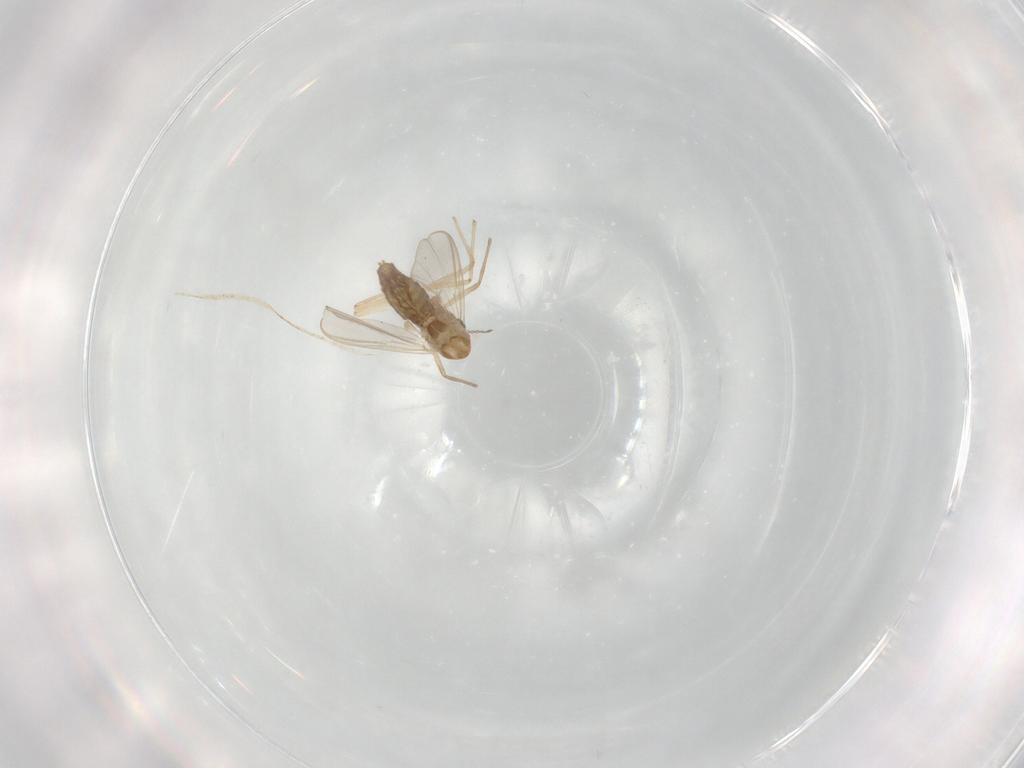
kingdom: Animalia
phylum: Arthropoda
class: Insecta
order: Diptera
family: Chironomidae
